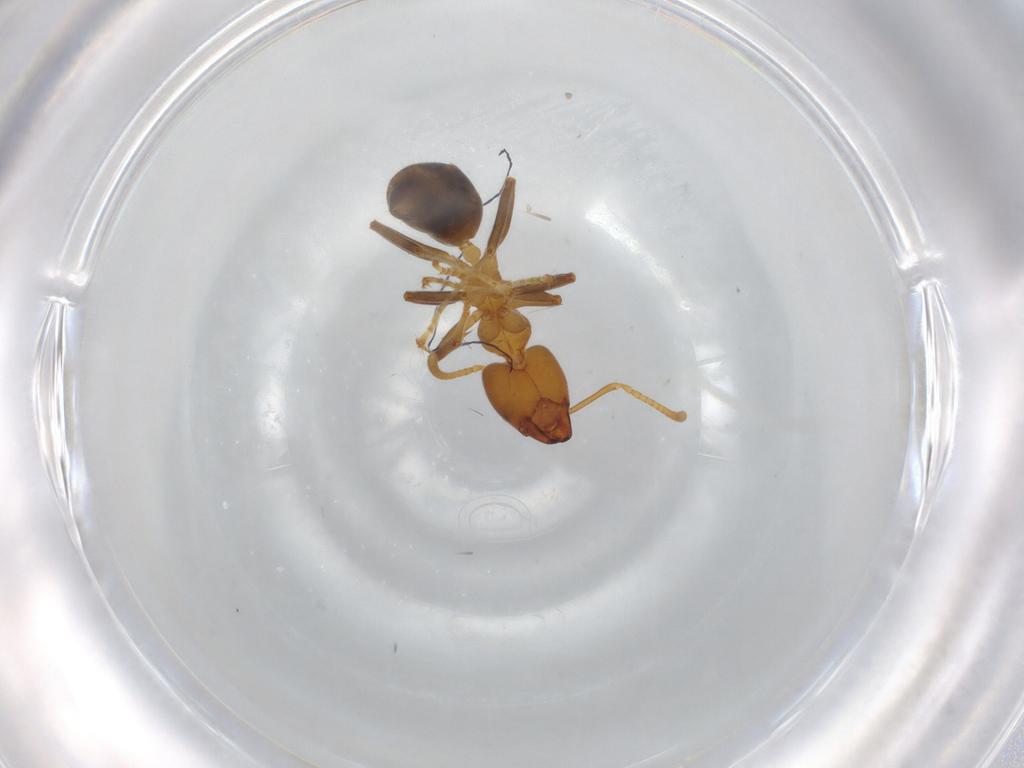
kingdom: Animalia
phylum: Arthropoda
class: Insecta
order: Hymenoptera
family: Formicidae
